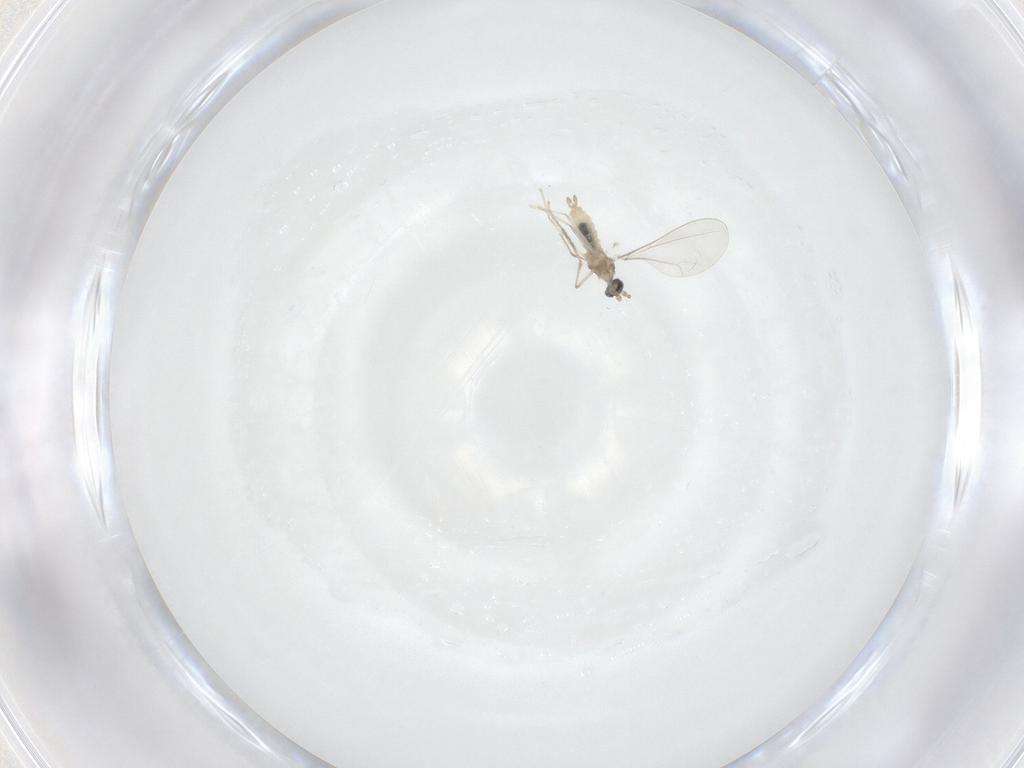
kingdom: Animalia
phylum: Arthropoda
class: Insecta
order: Diptera
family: Cecidomyiidae
